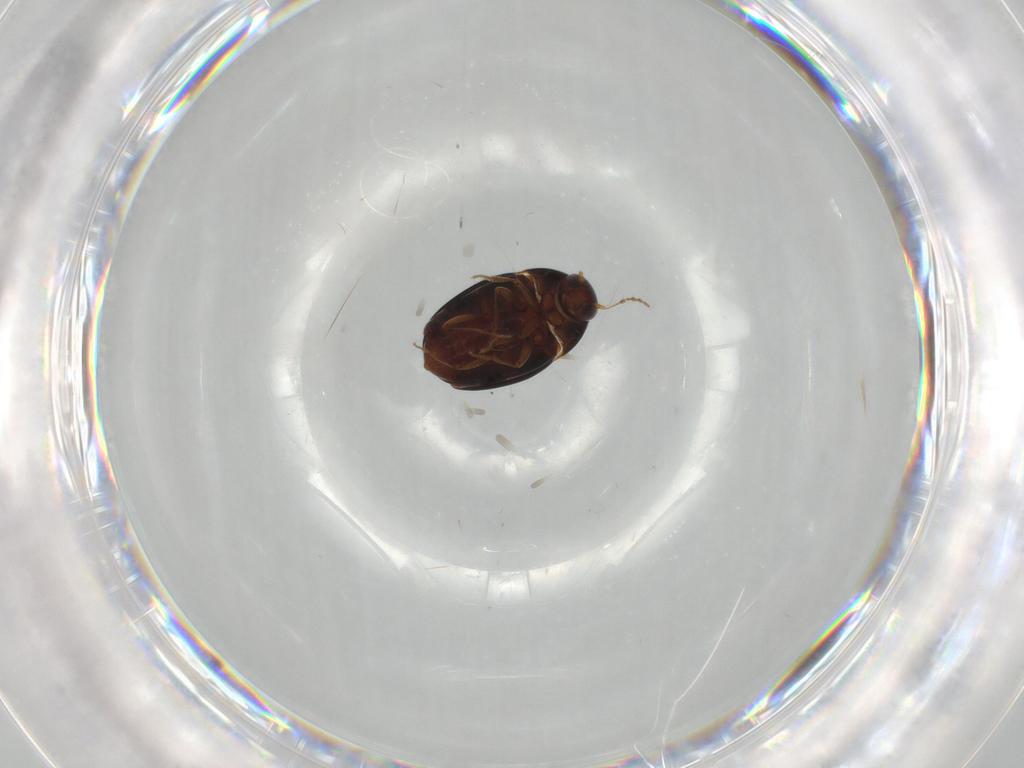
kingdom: Animalia
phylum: Arthropoda
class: Insecta
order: Coleoptera
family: Staphylinidae
